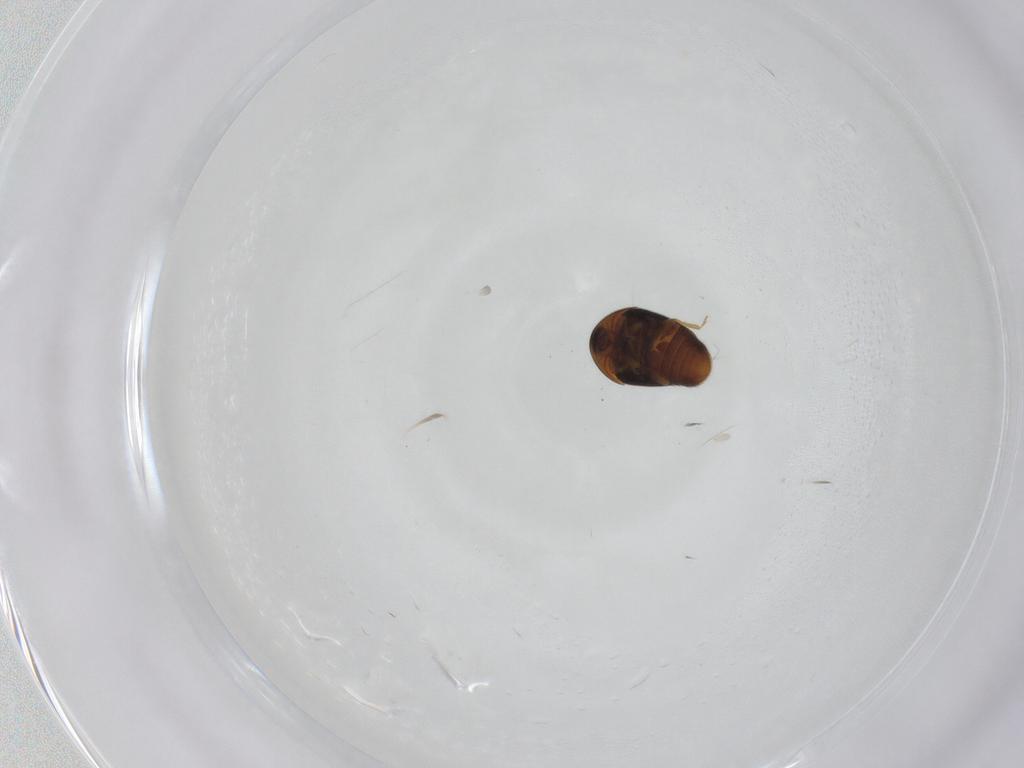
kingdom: Animalia
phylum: Arthropoda
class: Insecta
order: Coleoptera
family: Corylophidae
